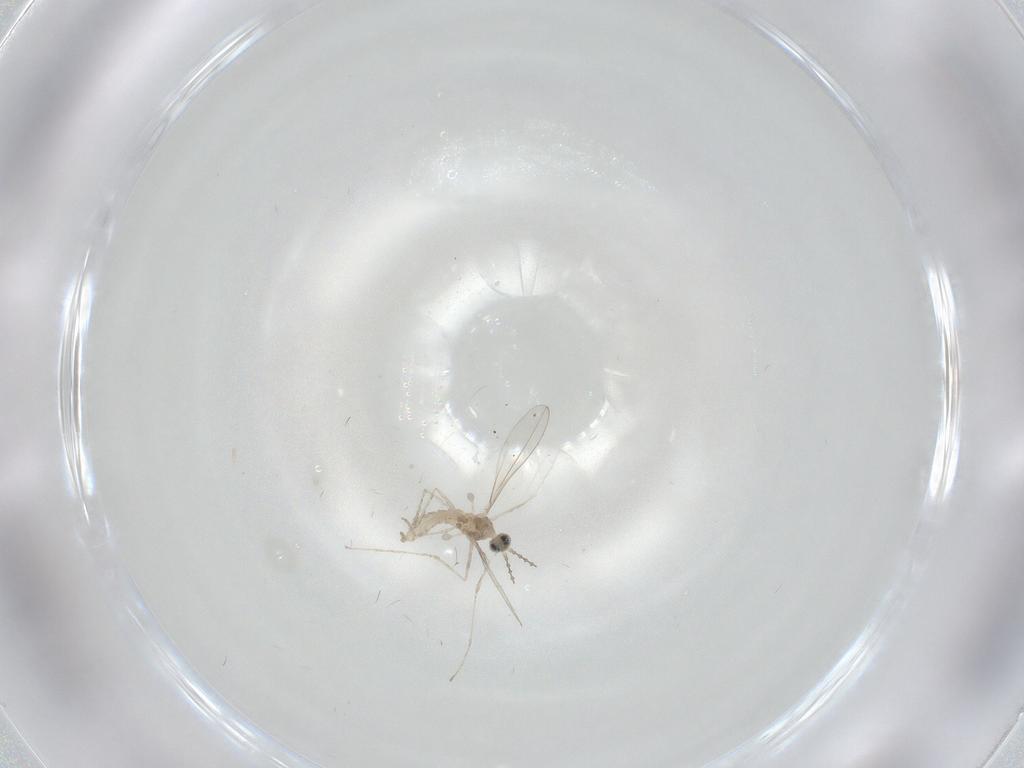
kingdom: Animalia
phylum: Arthropoda
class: Insecta
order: Diptera
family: Cecidomyiidae
